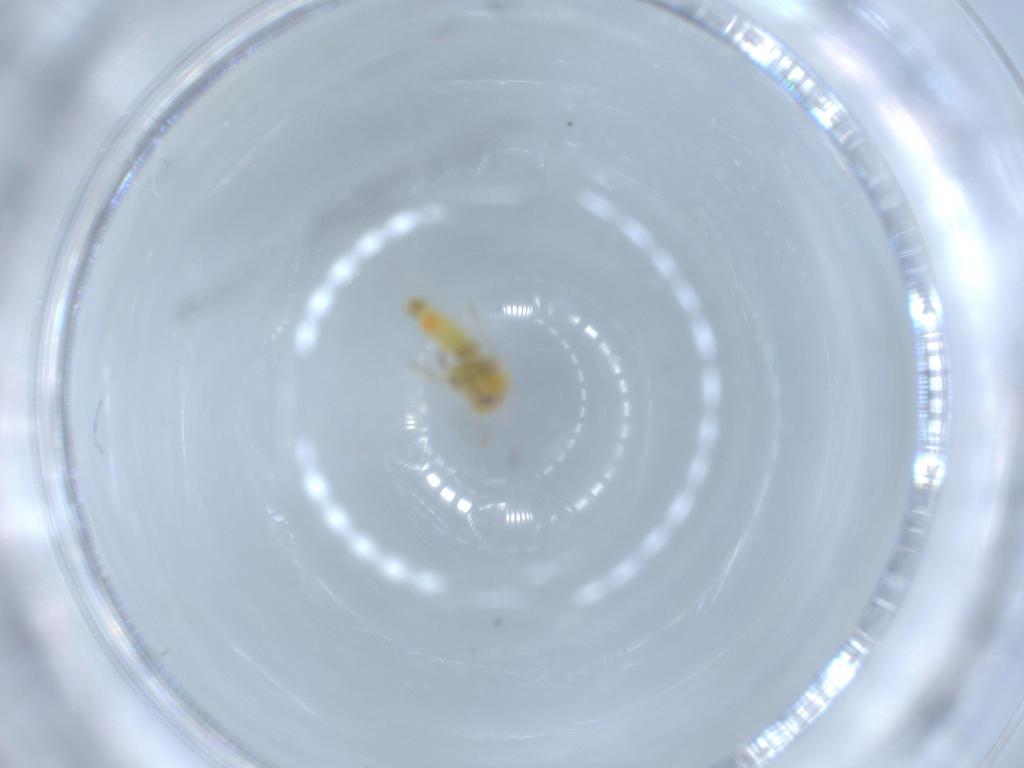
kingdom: Animalia
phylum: Arthropoda
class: Insecta
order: Hemiptera
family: Aleyrodidae
